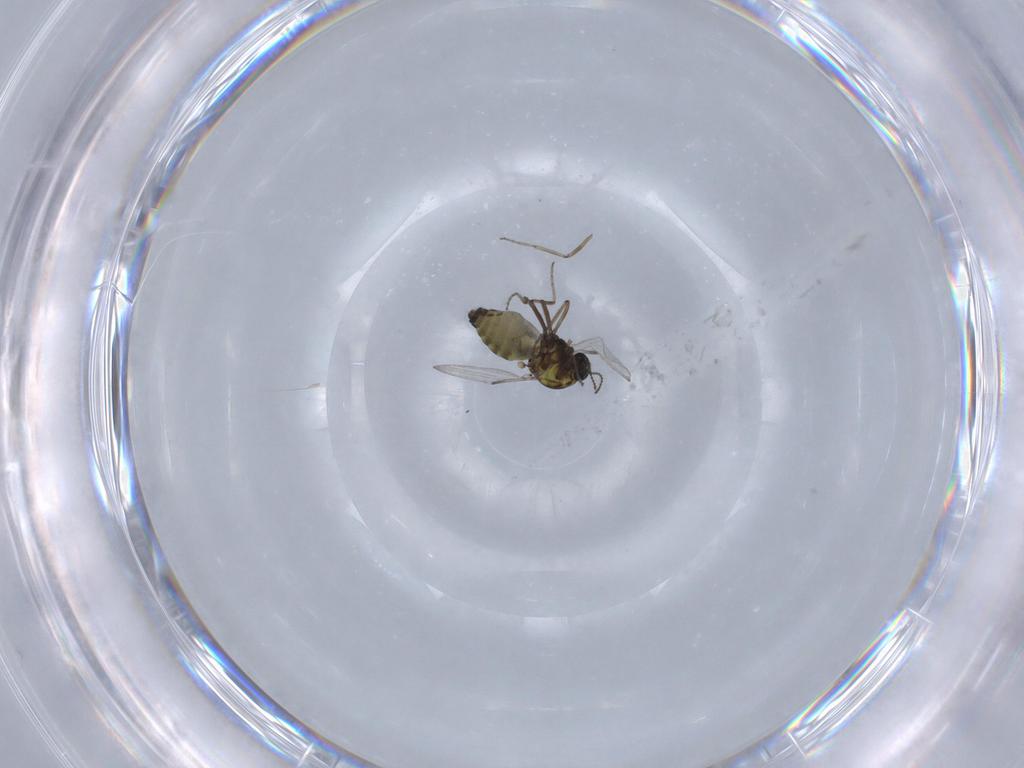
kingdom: Animalia
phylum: Arthropoda
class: Insecta
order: Diptera
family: Ceratopogonidae
